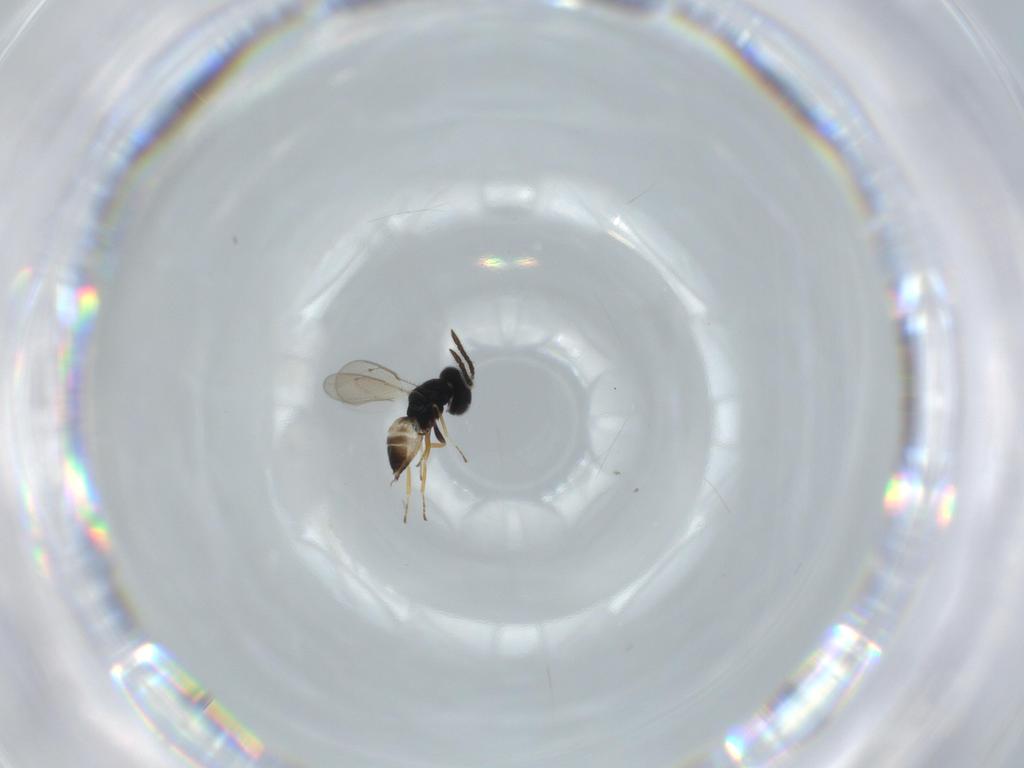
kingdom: Animalia
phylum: Arthropoda
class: Insecta
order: Hymenoptera
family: Pteromalidae
